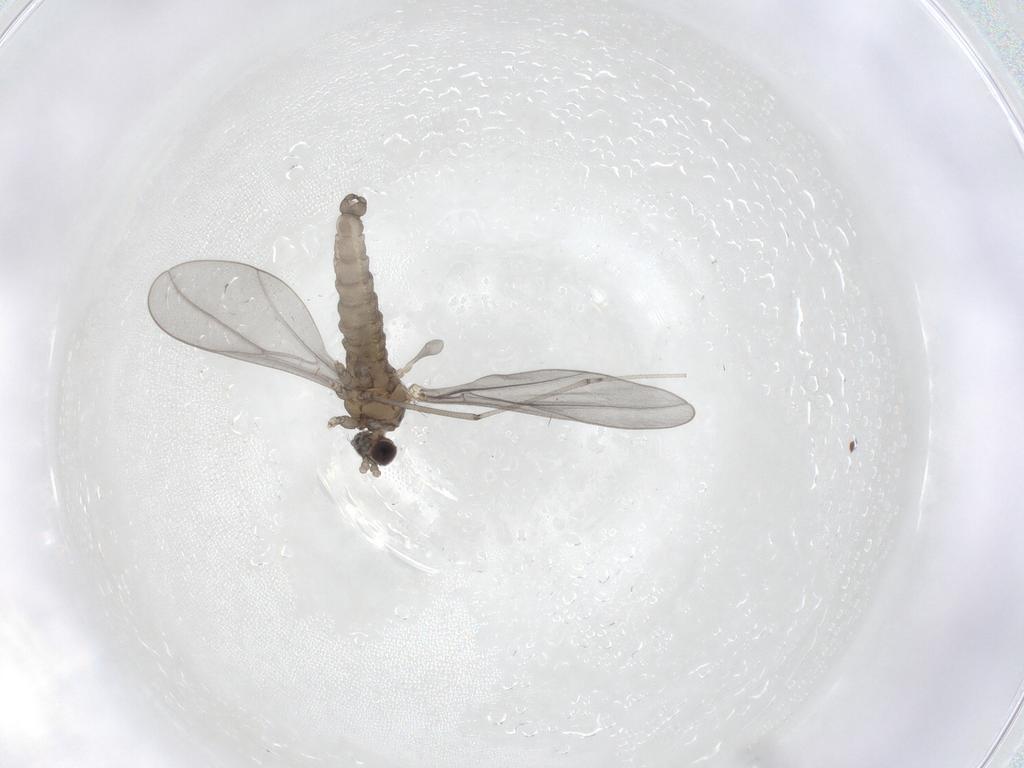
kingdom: Animalia
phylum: Arthropoda
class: Insecta
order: Diptera
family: Cecidomyiidae
